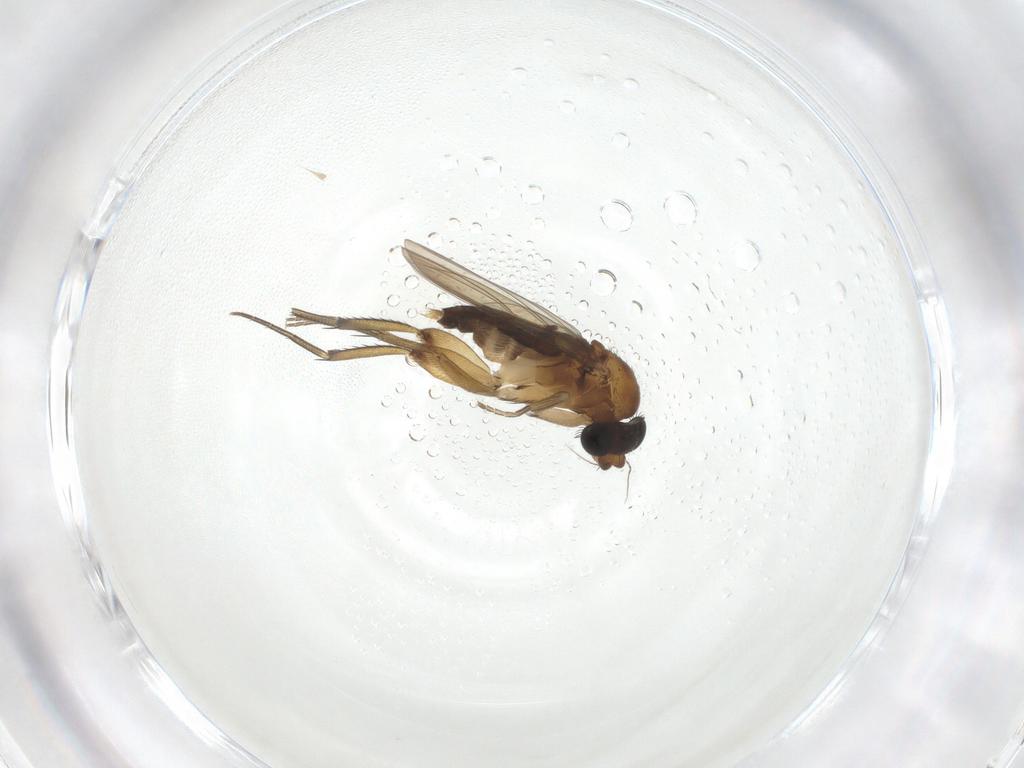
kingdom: Animalia
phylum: Arthropoda
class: Insecta
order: Diptera
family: Phoridae
